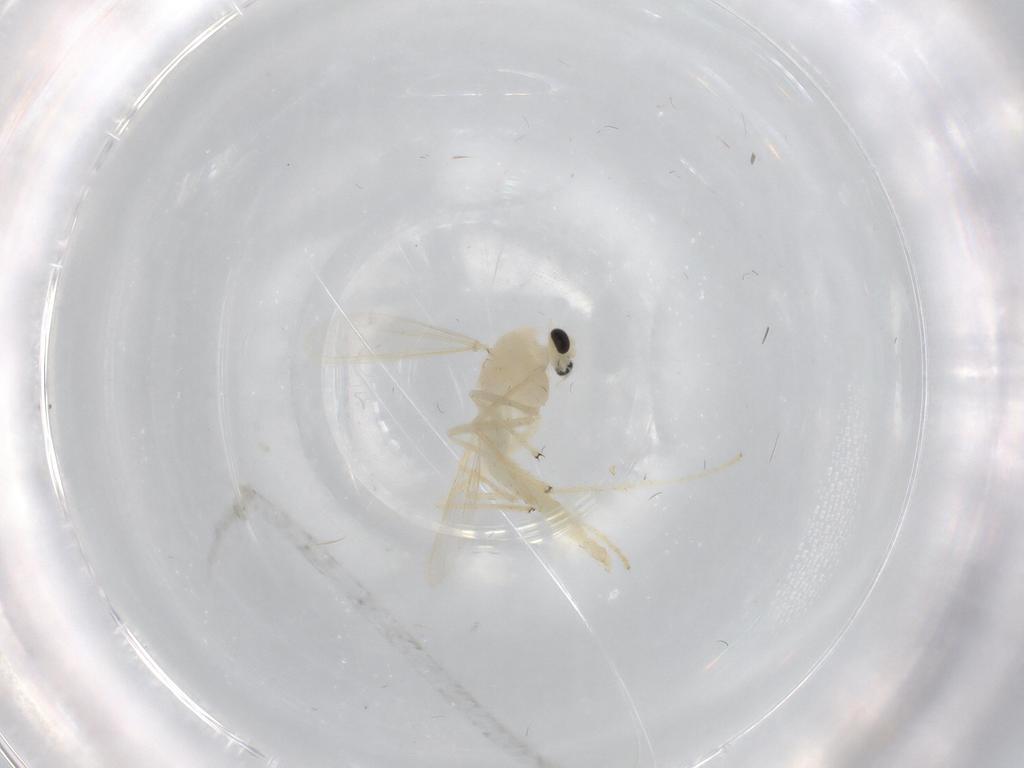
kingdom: Animalia
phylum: Arthropoda
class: Insecta
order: Diptera
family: Chironomidae
